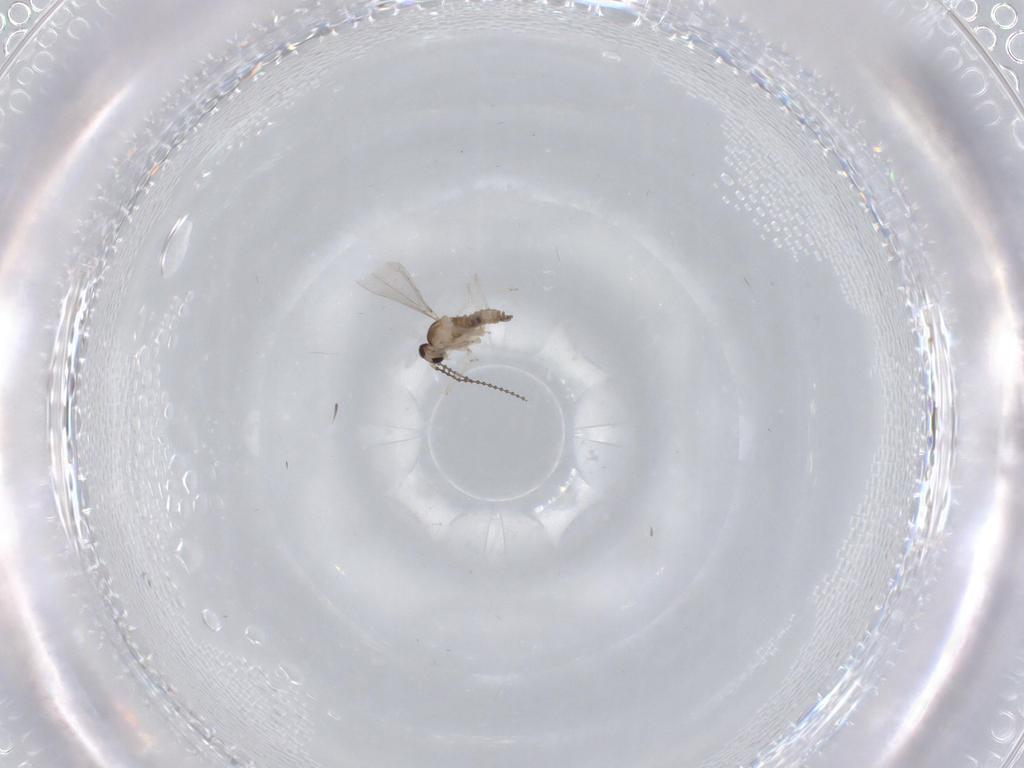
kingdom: Animalia
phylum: Arthropoda
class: Insecta
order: Diptera
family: Cecidomyiidae
